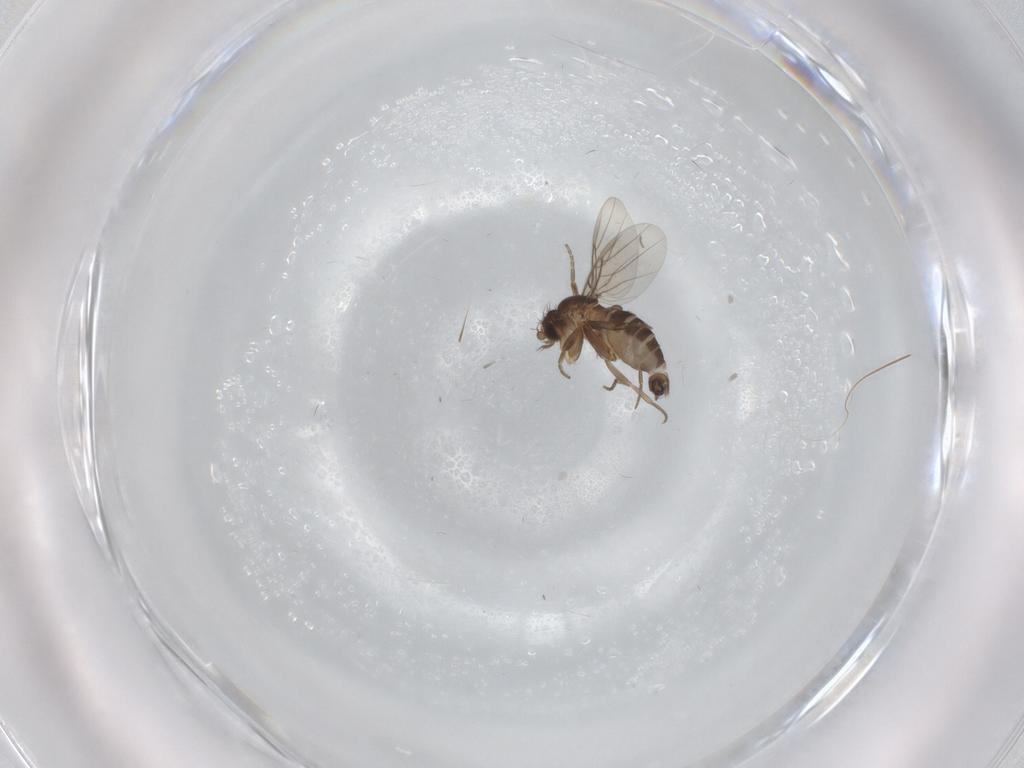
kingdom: Animalia
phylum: Arthropoda
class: Insecta
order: Diptera
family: Phoridae
